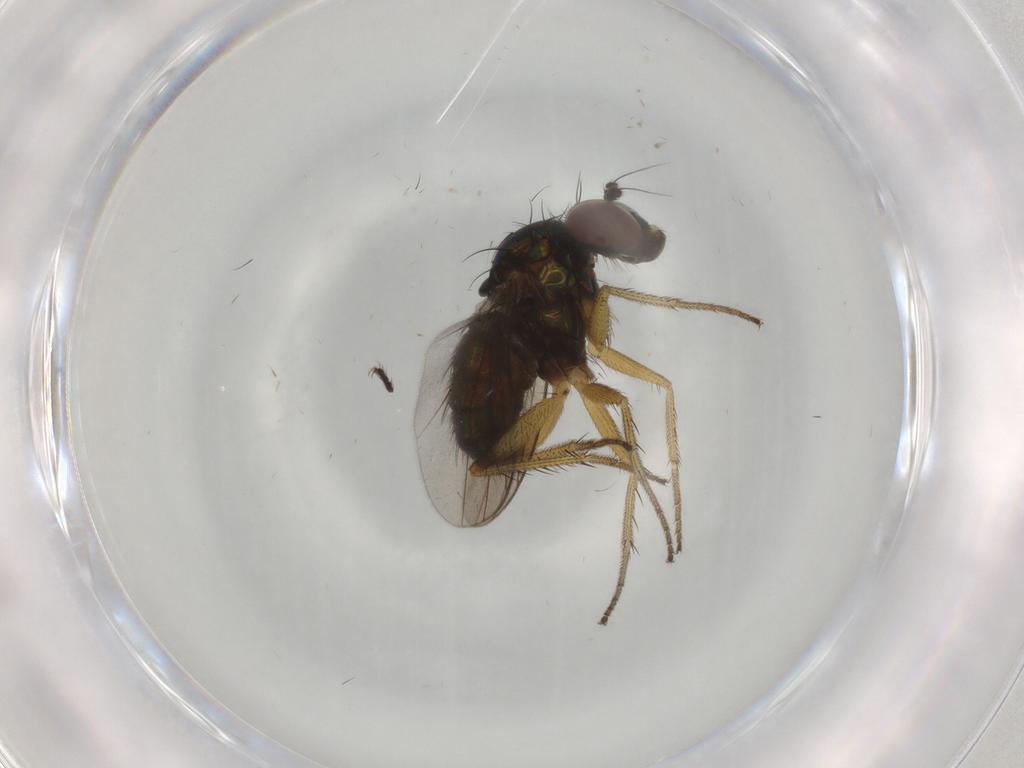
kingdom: Animalia
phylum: Arthropoda
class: Insecta
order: Diptera
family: Dolichopodidae
